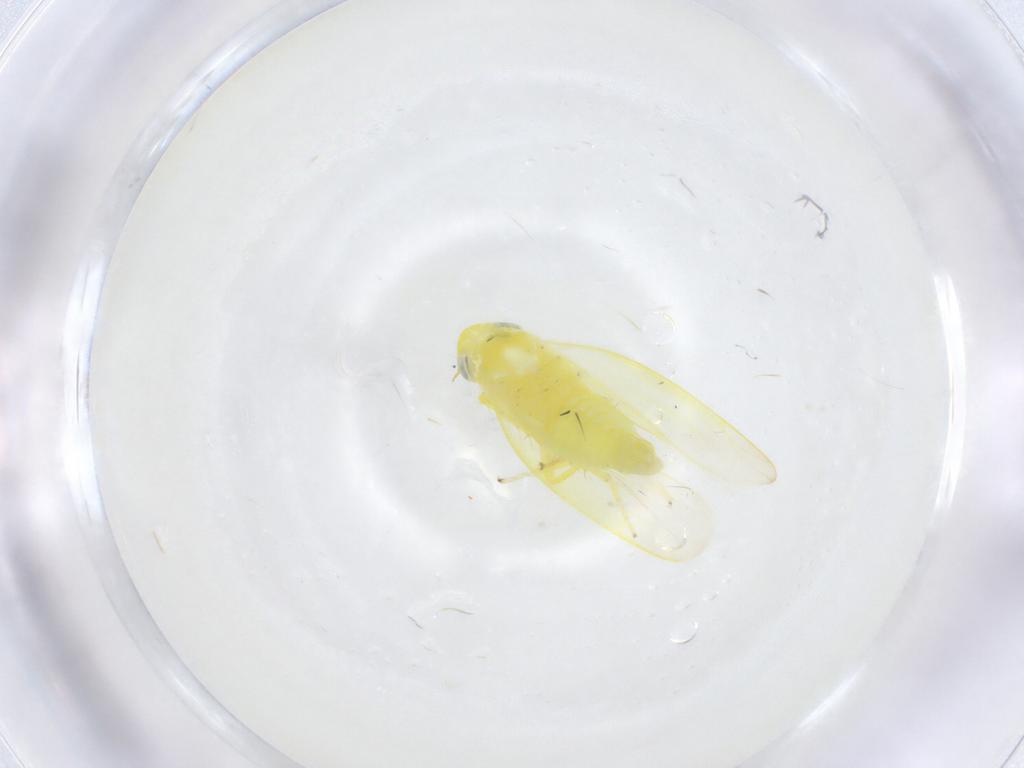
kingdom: Animalia
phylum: Arthropoda
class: Insecta
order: Hemiptera
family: Cicadellidae
